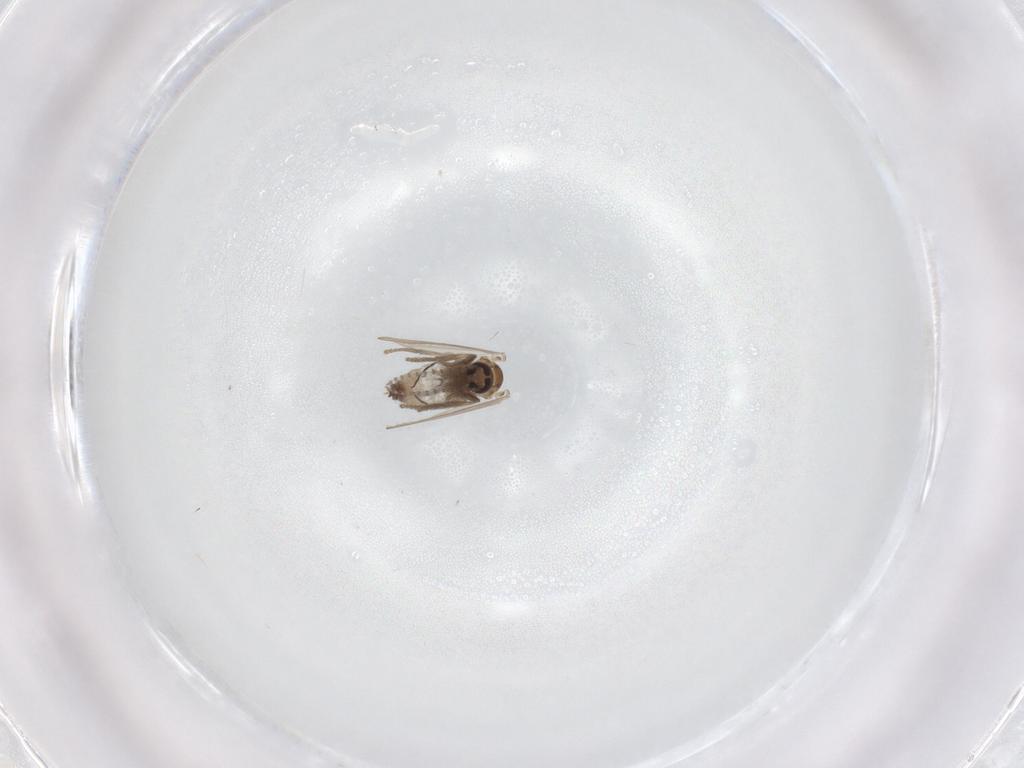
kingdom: Animalia
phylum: Arthropoda
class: Insecta
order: Diptera
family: Psychodidae
